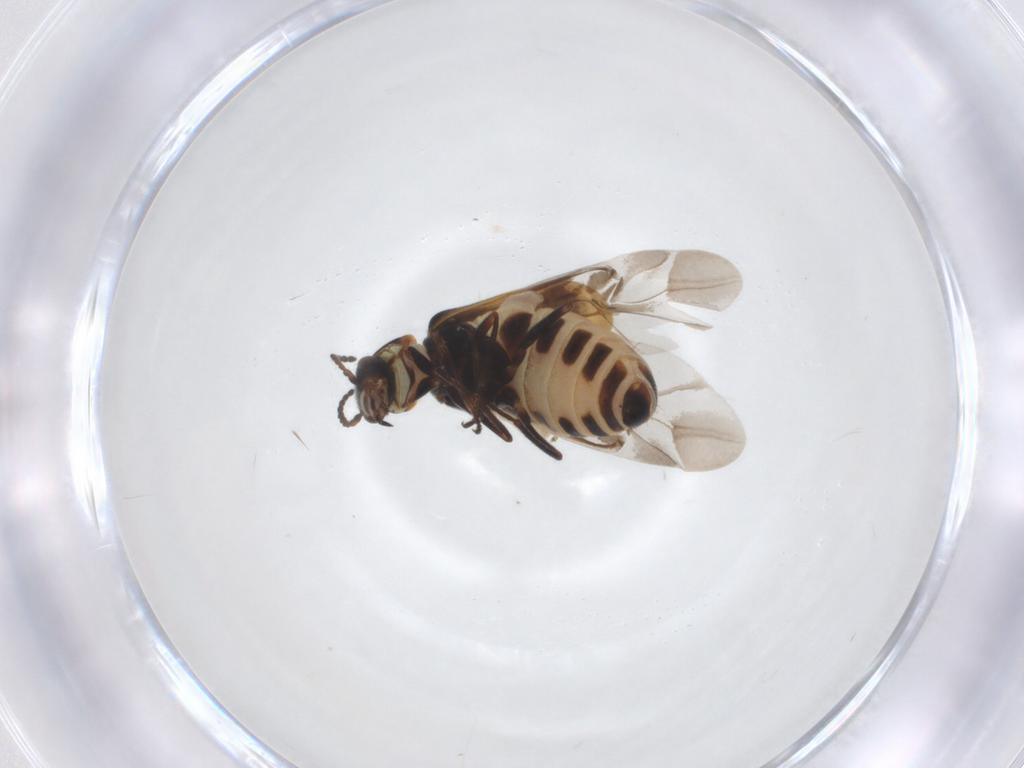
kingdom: Animalia
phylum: Arthropoda
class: Insecta
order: Coleoptera
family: Melyridae
